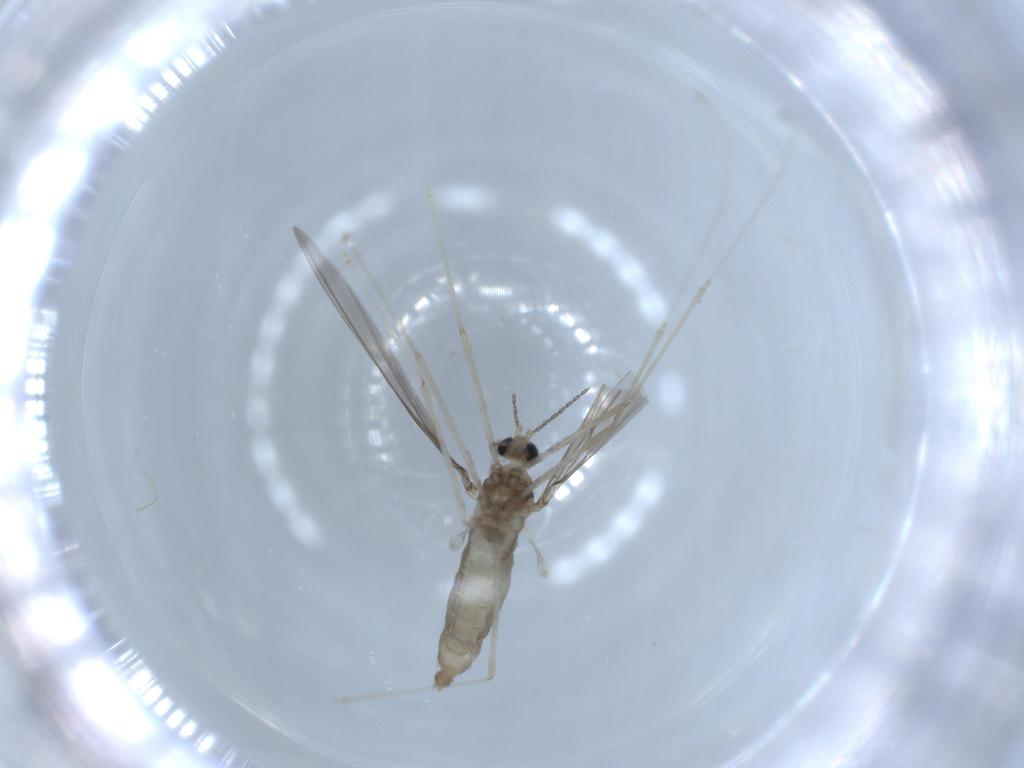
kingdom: Animalia
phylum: Arthropoda
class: Insecta
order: Diptera
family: Cecidomyiidae
